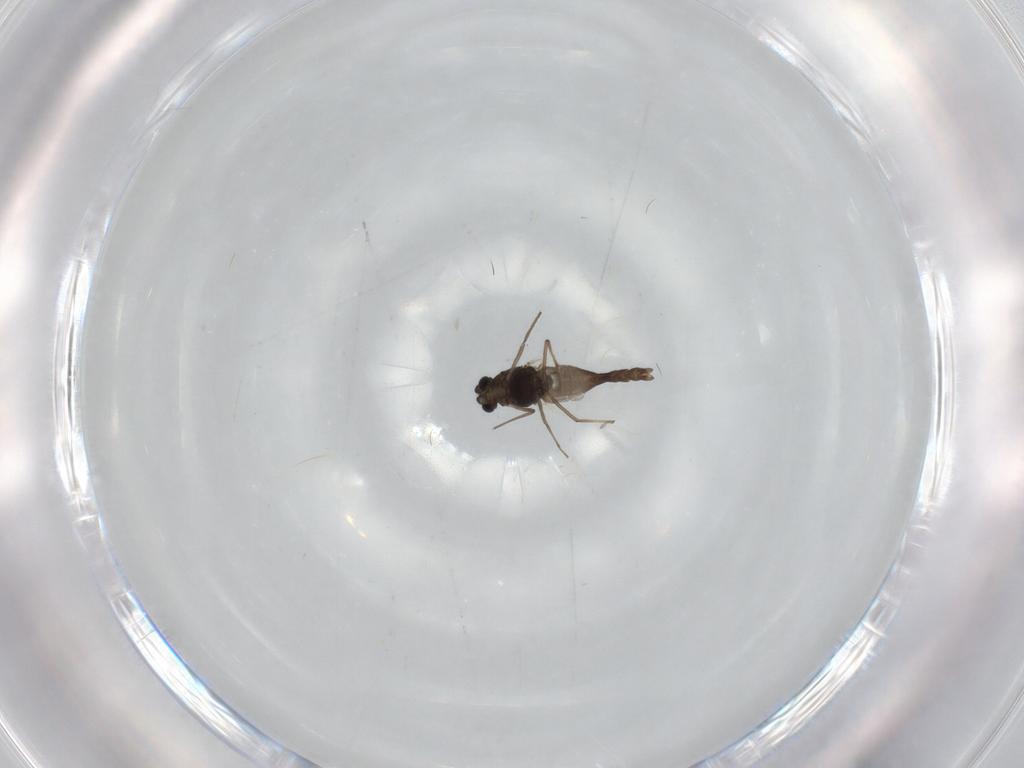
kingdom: Animalia
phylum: Arthropoda
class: Insecta
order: Diptera
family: Chironomidae
